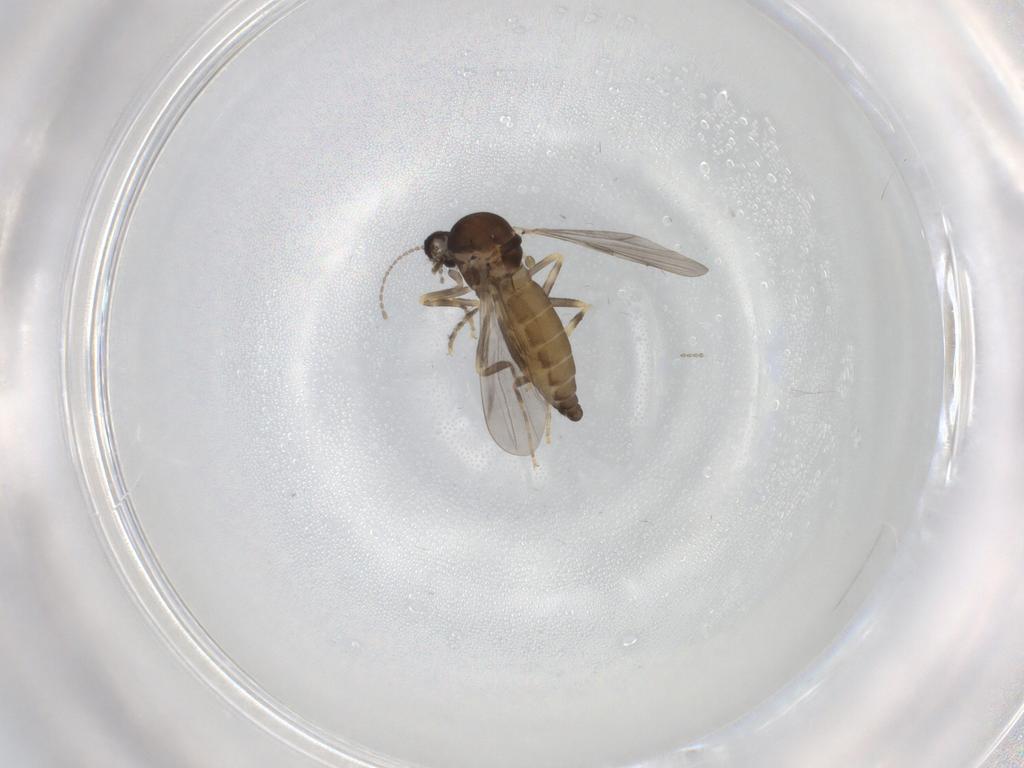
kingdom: Animalia
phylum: Arthropoda
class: Insecta
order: Diptera
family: Ceratopogonidae
